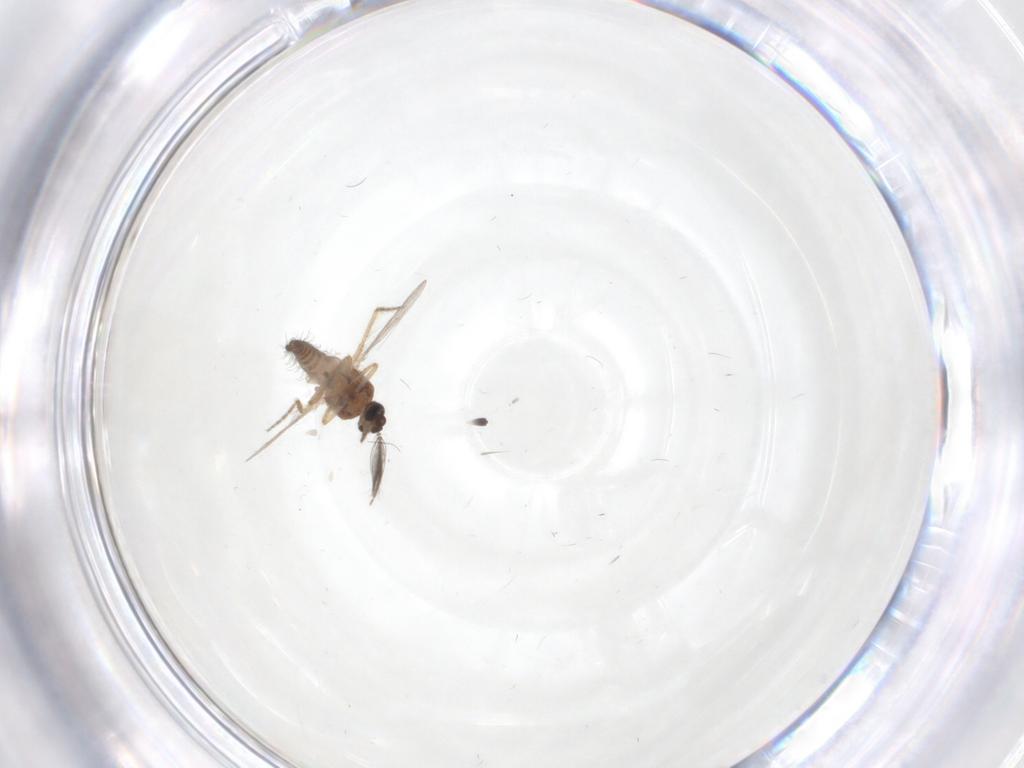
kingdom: Animalia
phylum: Arthropoda
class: Insecta
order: Diptera
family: Ceratopogonidae
